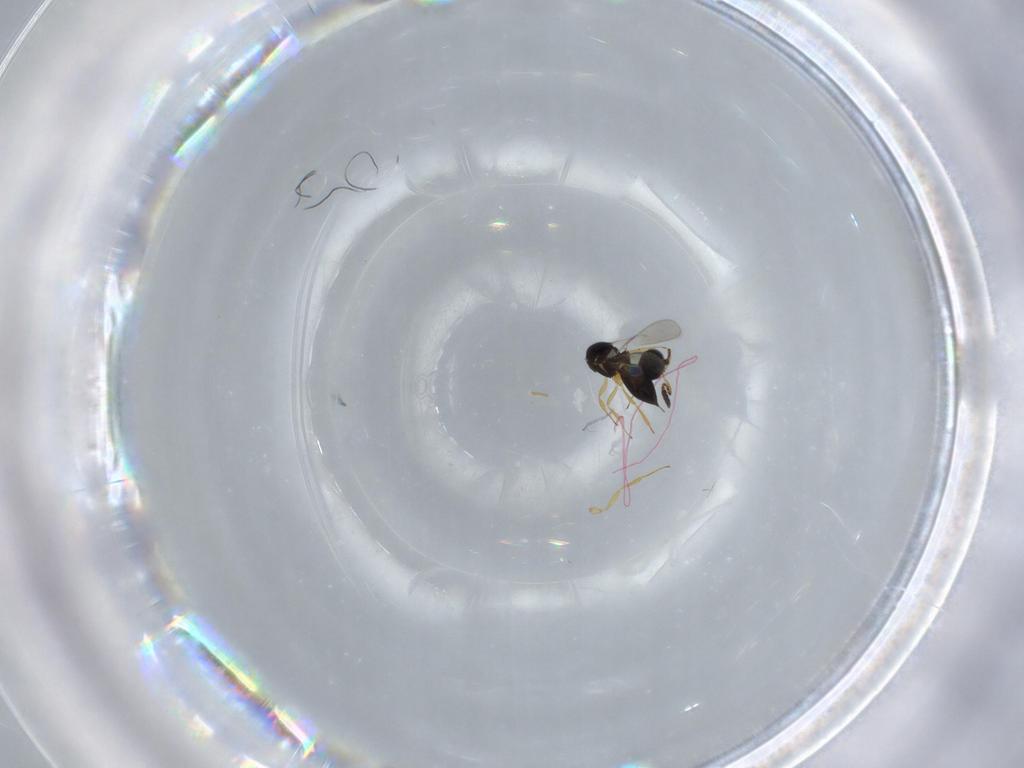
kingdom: Animalia
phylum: Arthropoda
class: Insecta
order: Hymenoptera
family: Scelionidae
